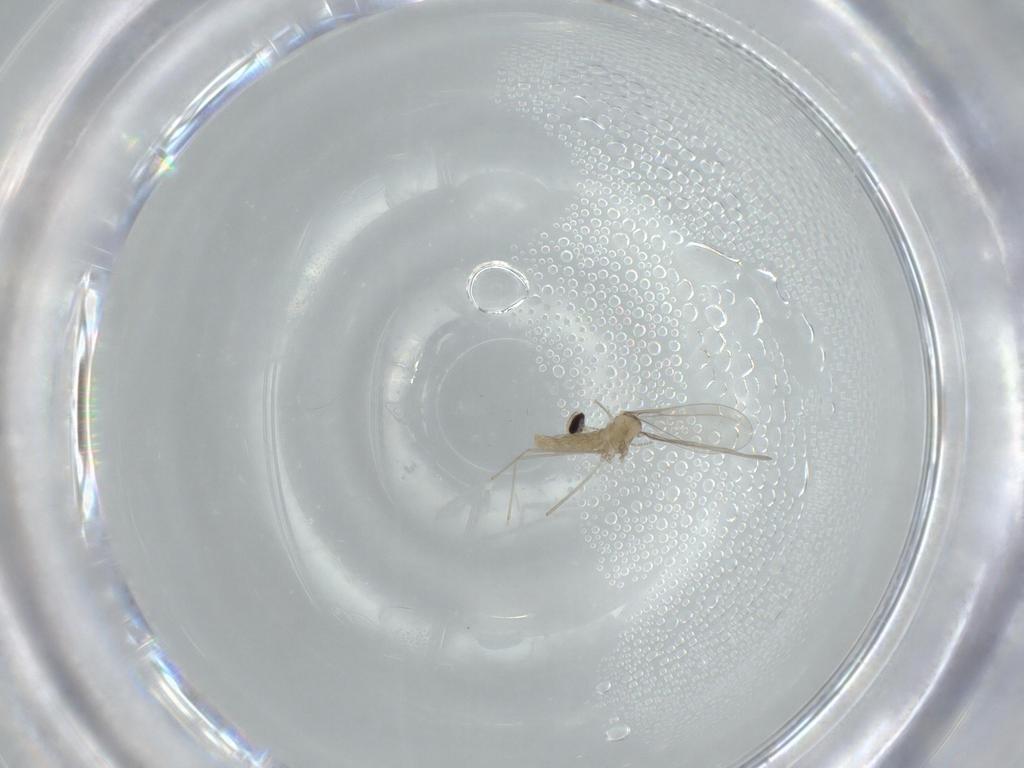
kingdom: Animalia
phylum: Arthropoda
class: Insecta
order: Diptera
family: Cecidomyiidae
